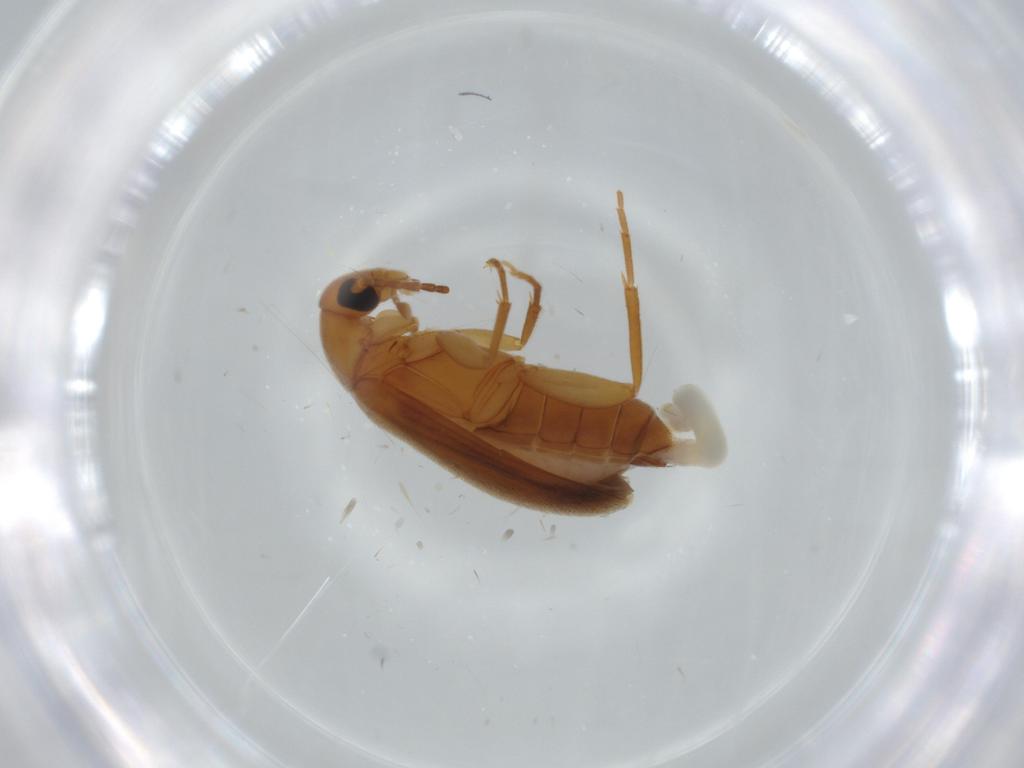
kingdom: Animalia
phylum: Arthropoda
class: Insecta
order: Coleoptera
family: Scraptiidae
